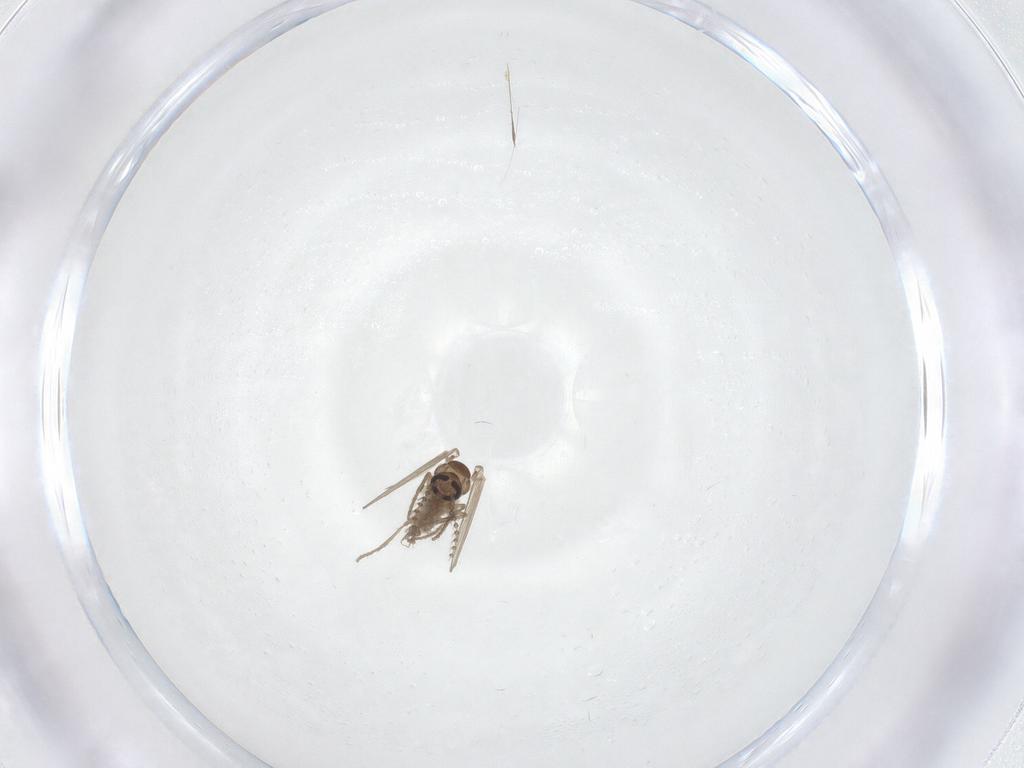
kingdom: Animalia
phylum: Arthropoda
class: Insecta
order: Diptera
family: Psychodidae
